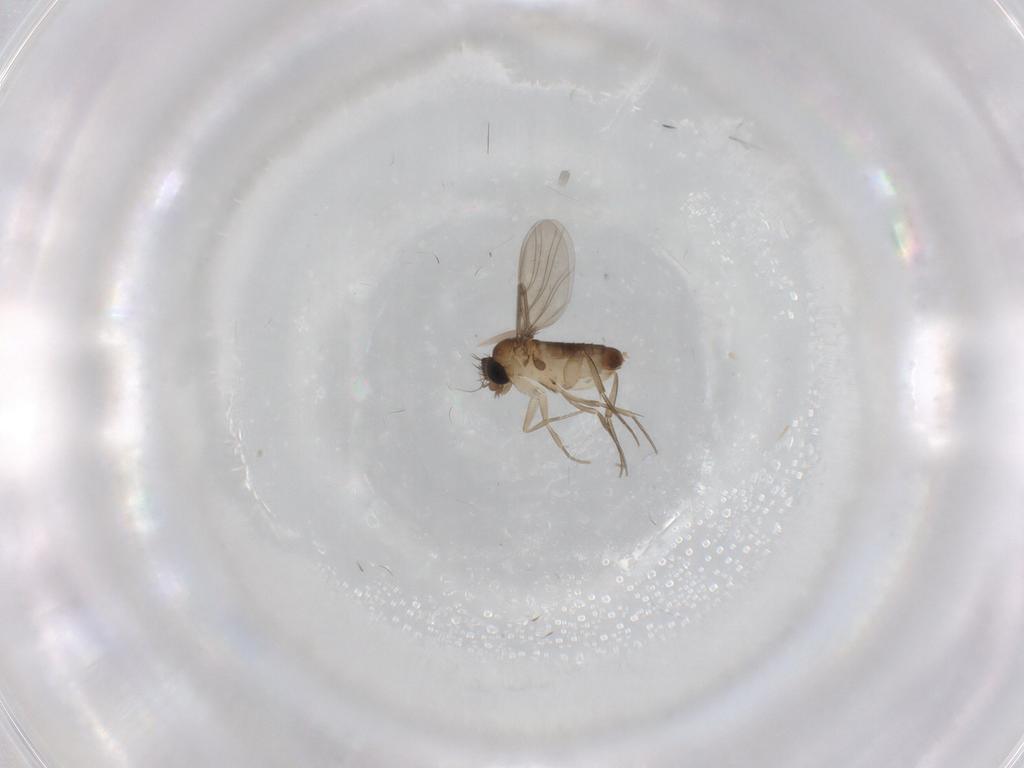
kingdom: Animalia
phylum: Arthropoda
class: Insecta
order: Diptera
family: Phoridae
